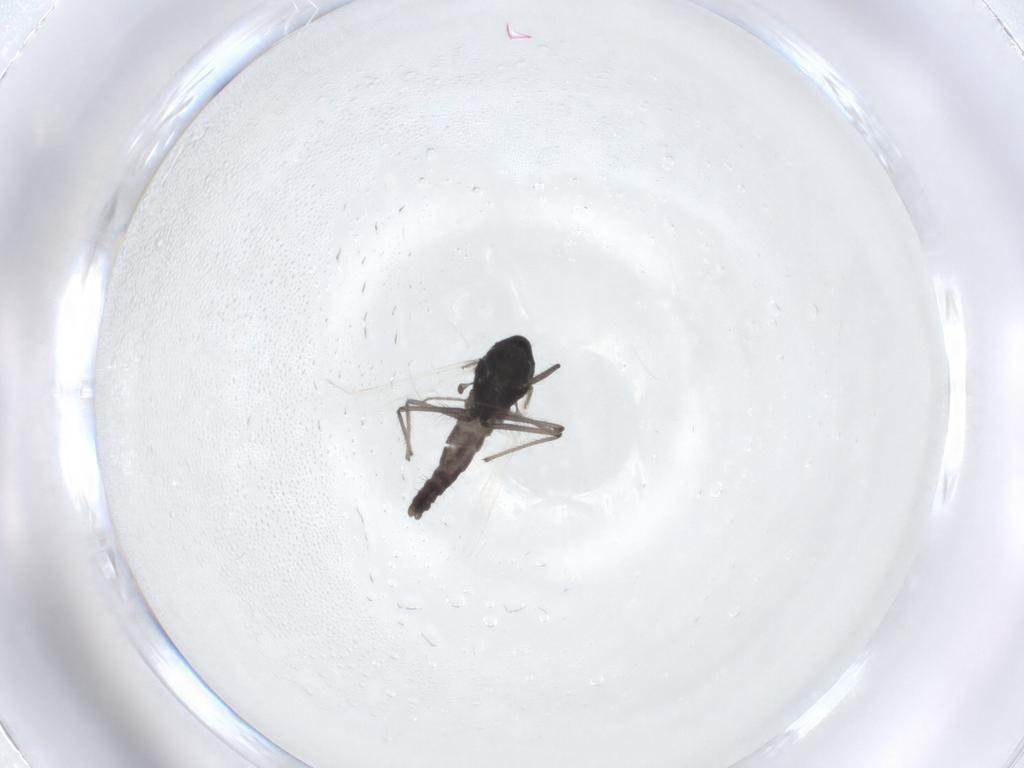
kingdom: Animalia
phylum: Arthropoda
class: Insecta
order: Diptera
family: Chironomidae
